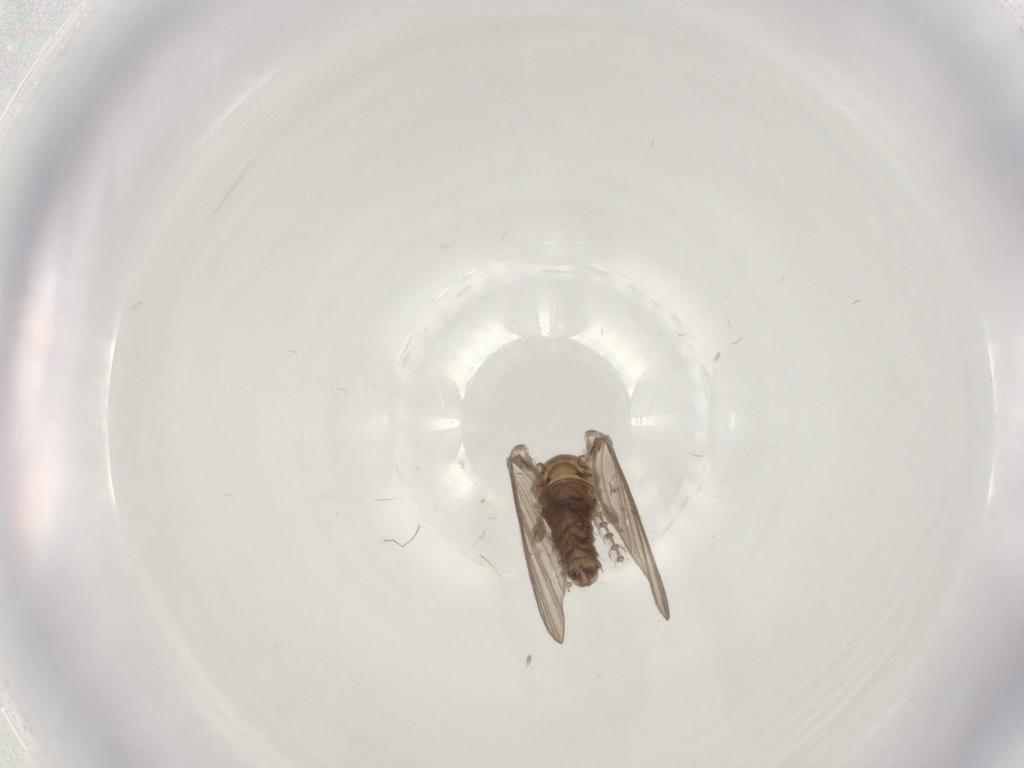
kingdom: Animalia
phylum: Arthropoda
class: Insecta
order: Diptera
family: Psychodidae
